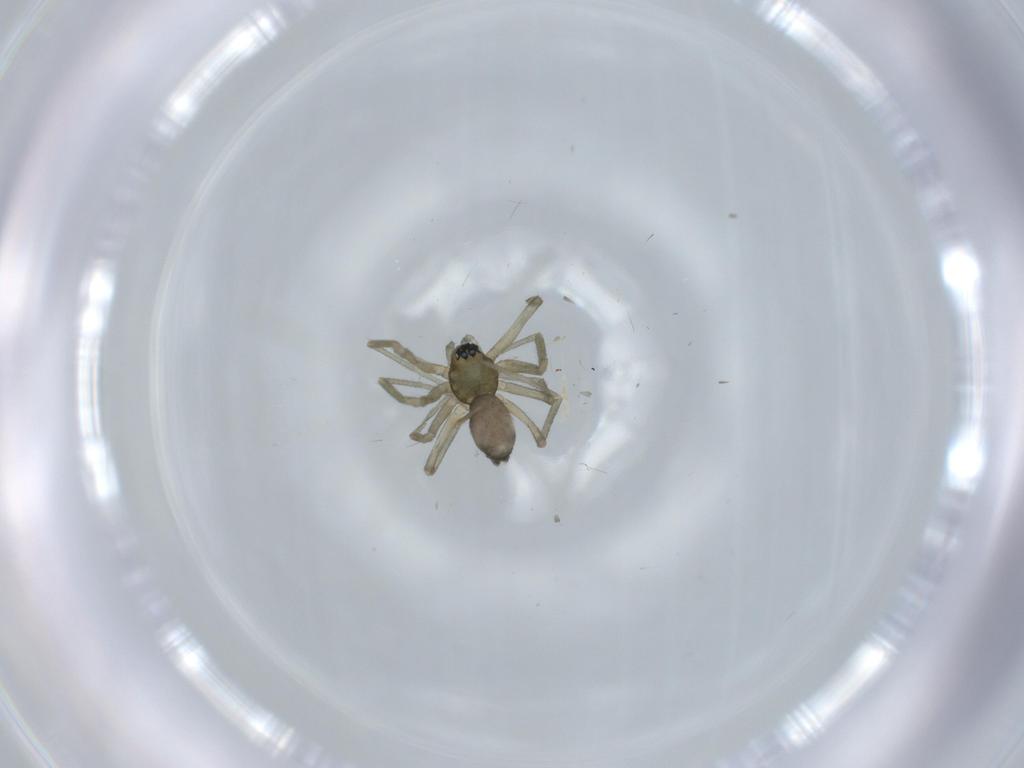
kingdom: Animalia
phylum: Arthropoda
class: Arachnida
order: Araneae
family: Linyphiidae
